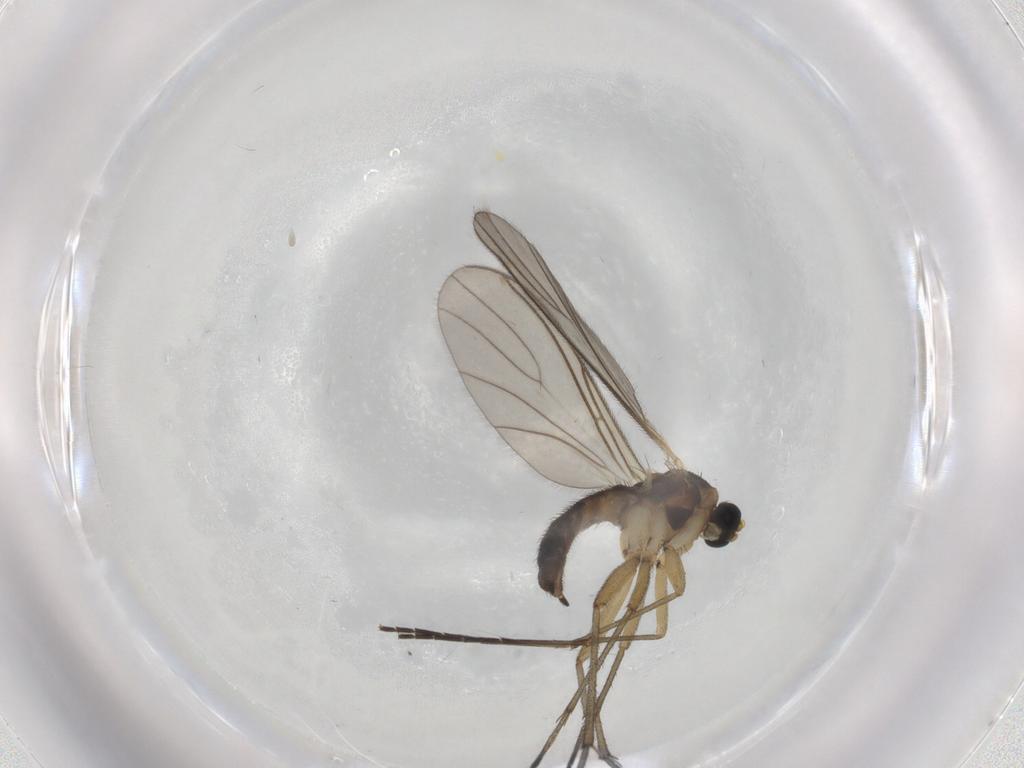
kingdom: Animalia
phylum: Arthropoda
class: Insecta
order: Diptera
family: Sciaridae
